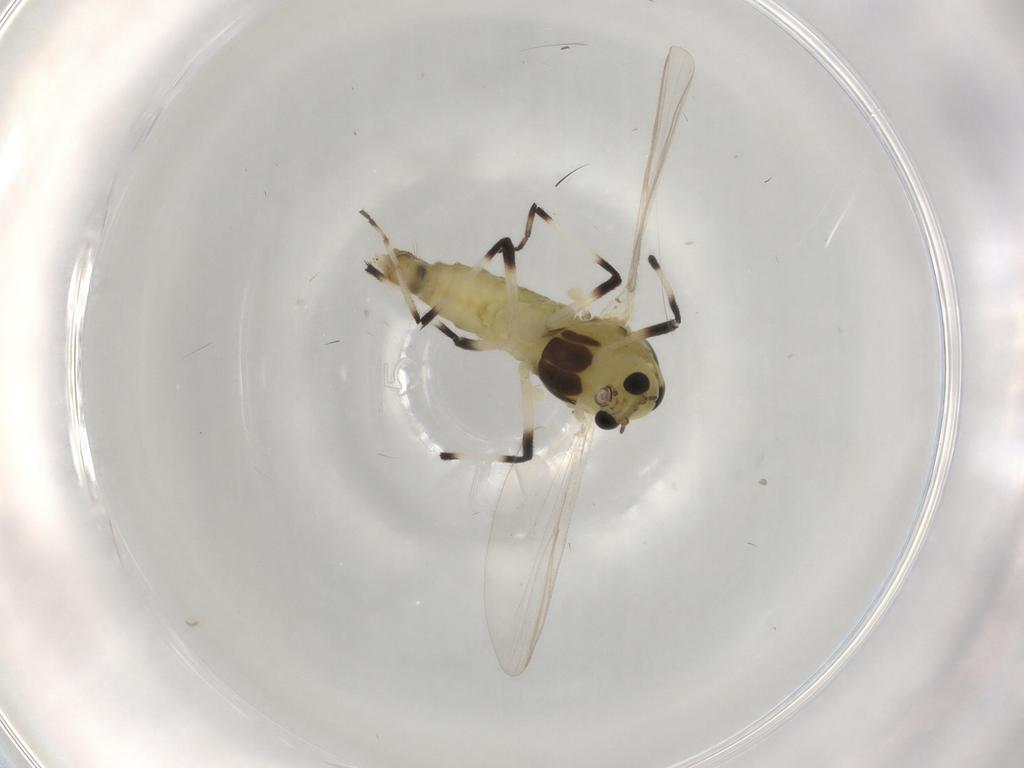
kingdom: Animalia
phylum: Arthropoda
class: Insecta
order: Diptera
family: Chironomidae
